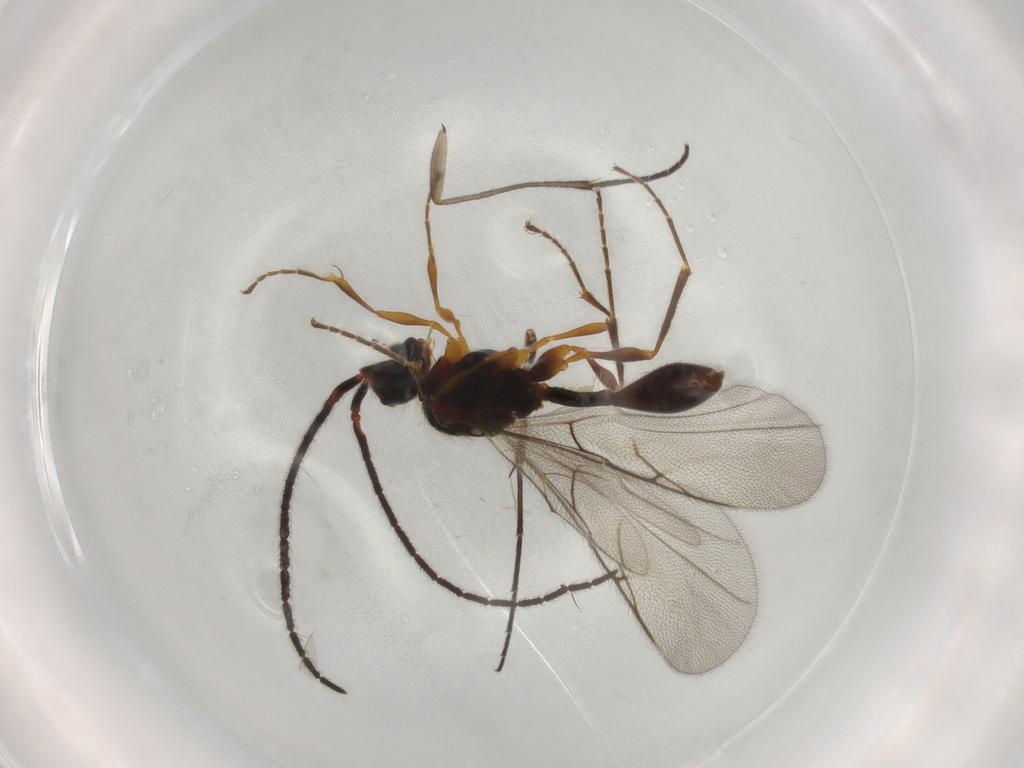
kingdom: Animalia
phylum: Arthropoda
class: Insecta
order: Hymenoptera
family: Diapriidae
